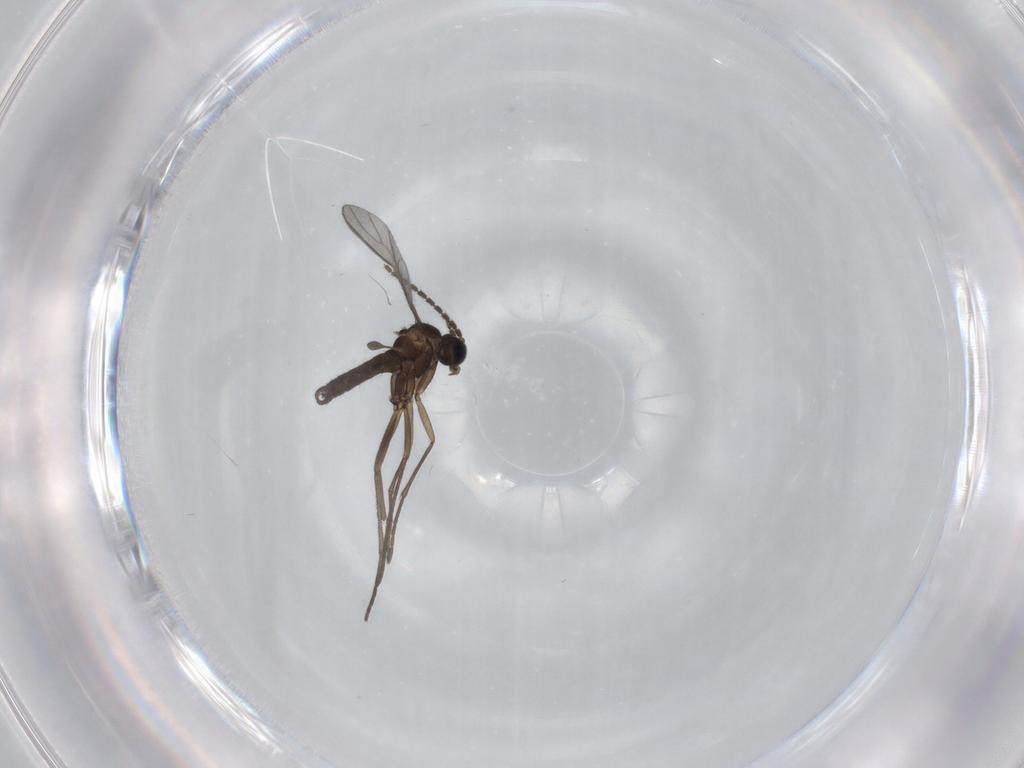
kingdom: Animalia
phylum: Arthropoda
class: Insecta
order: Diptera
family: Sciaridae
